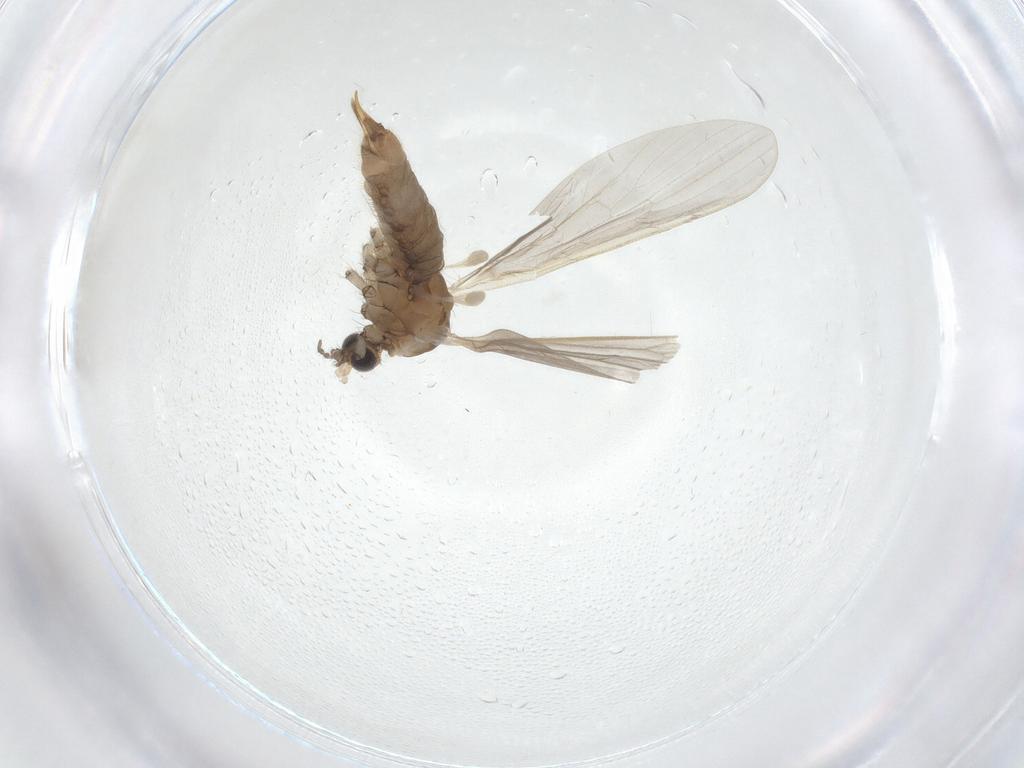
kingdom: Animalia
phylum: Arthropoda
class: Insecta
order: Diptera
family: Limoniidae
